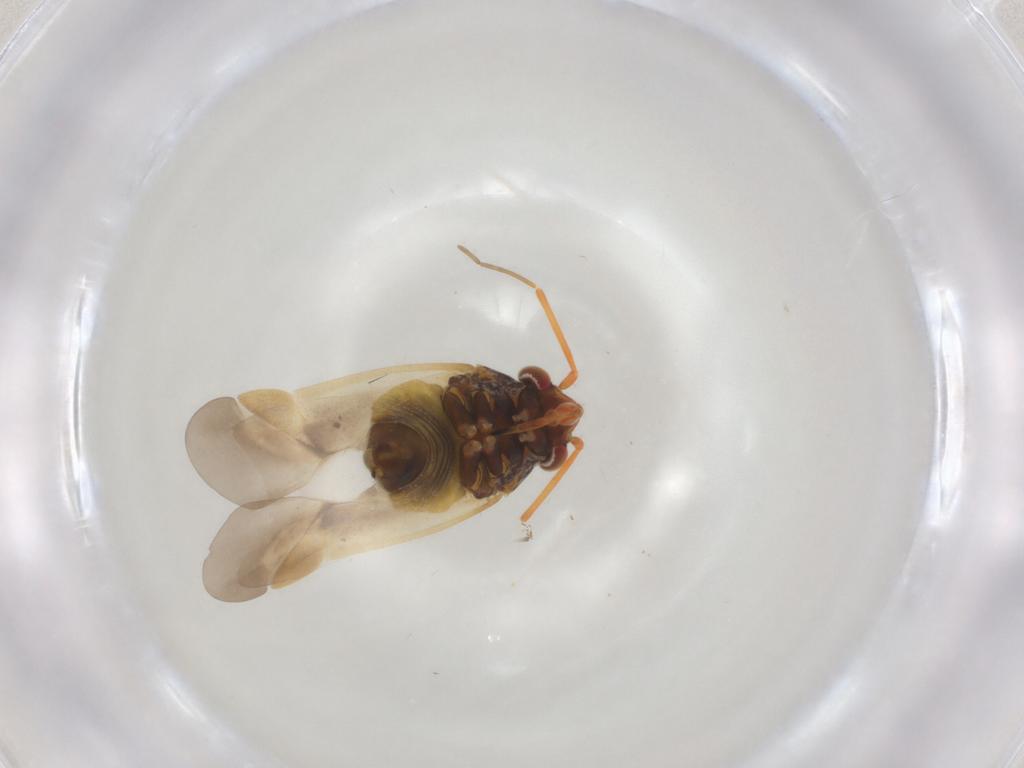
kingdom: Animalia
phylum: Arthropoda
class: Insecta
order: Hemiptera
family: Miridae
